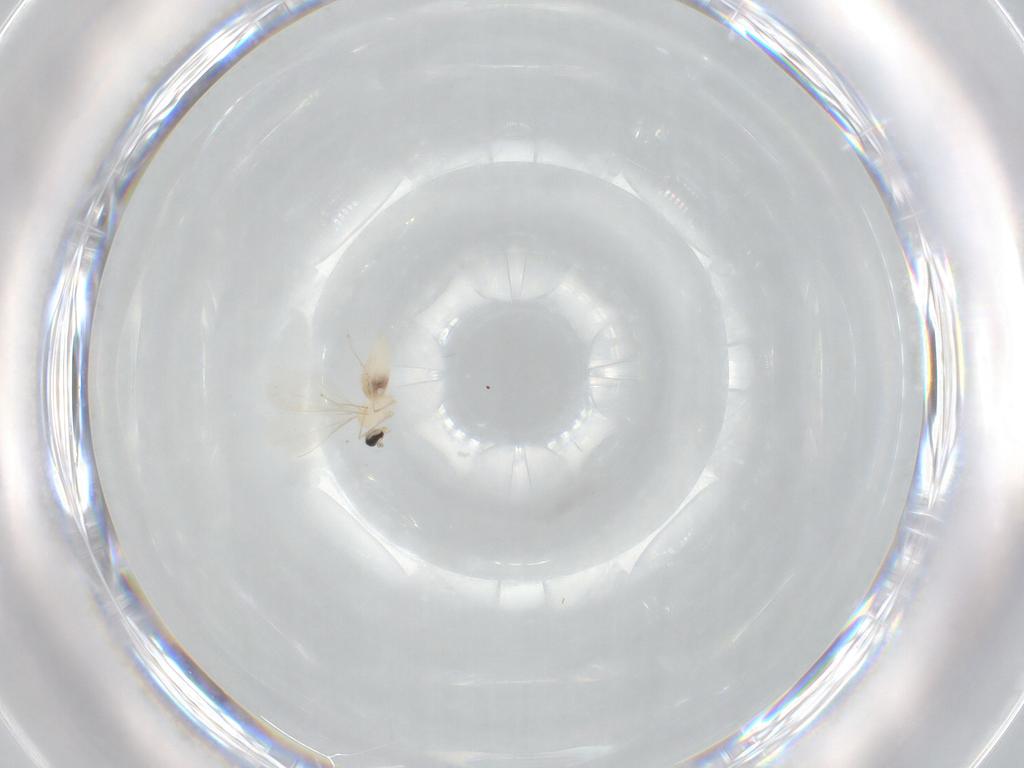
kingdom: Animalia
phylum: Arthropoda
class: Insecta
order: Diptera
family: Cecidomyiidae
